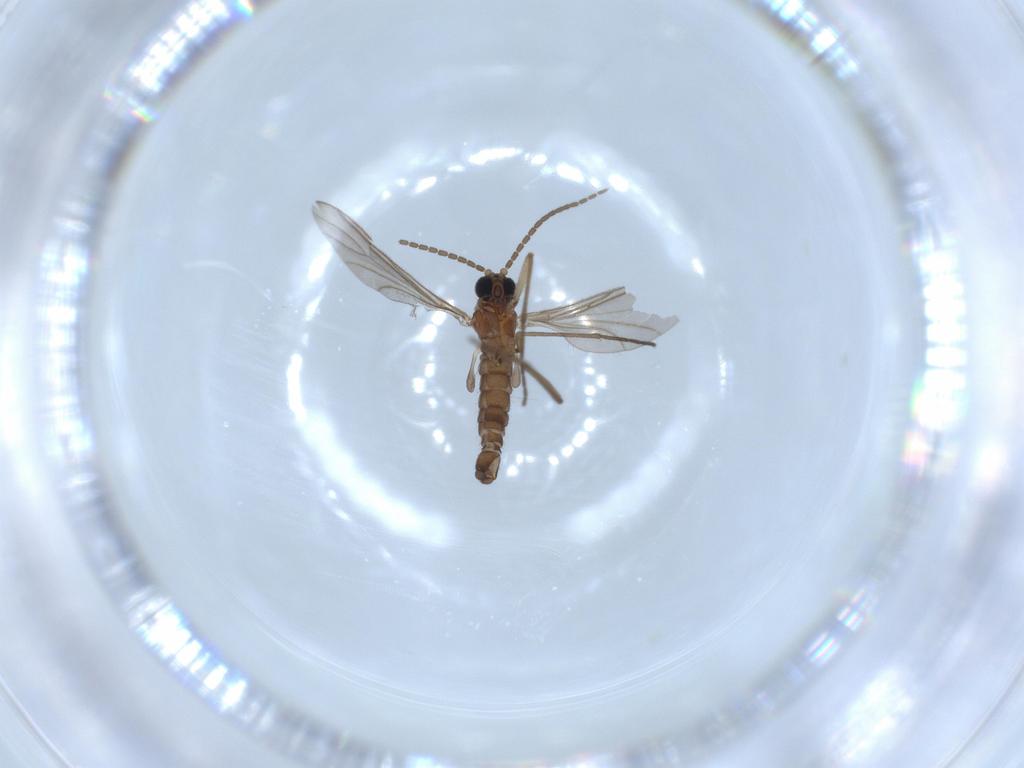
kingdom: Animalia
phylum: Arthropoda
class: Insecta
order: Diptera
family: Sciaridae
